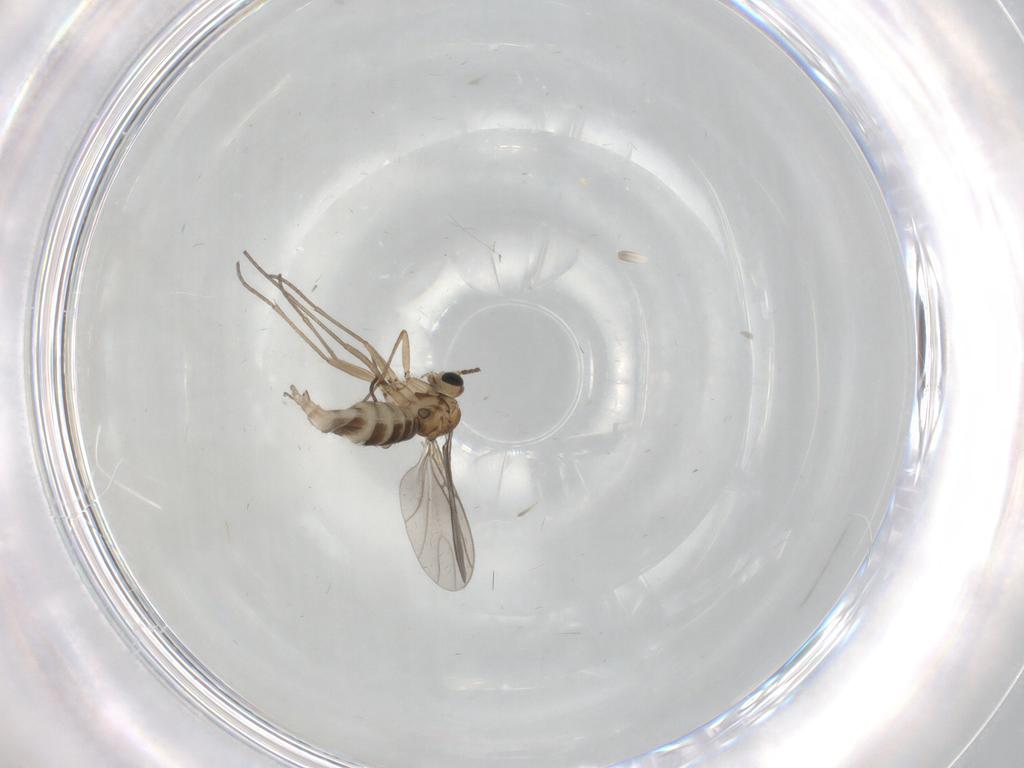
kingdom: Animalia
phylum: Arthropoda
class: Insecta
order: Diptera
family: Sciaridae
